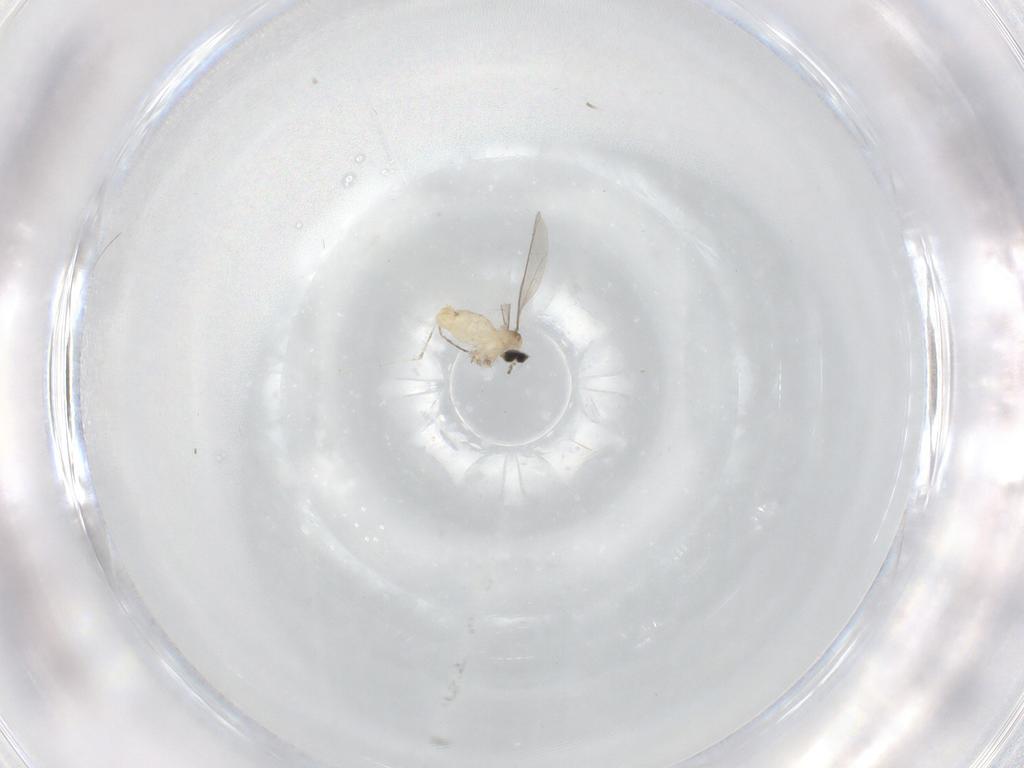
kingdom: Animalia
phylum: Arthropoda
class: Insecta
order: Diptera
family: Cecidomyiidae
